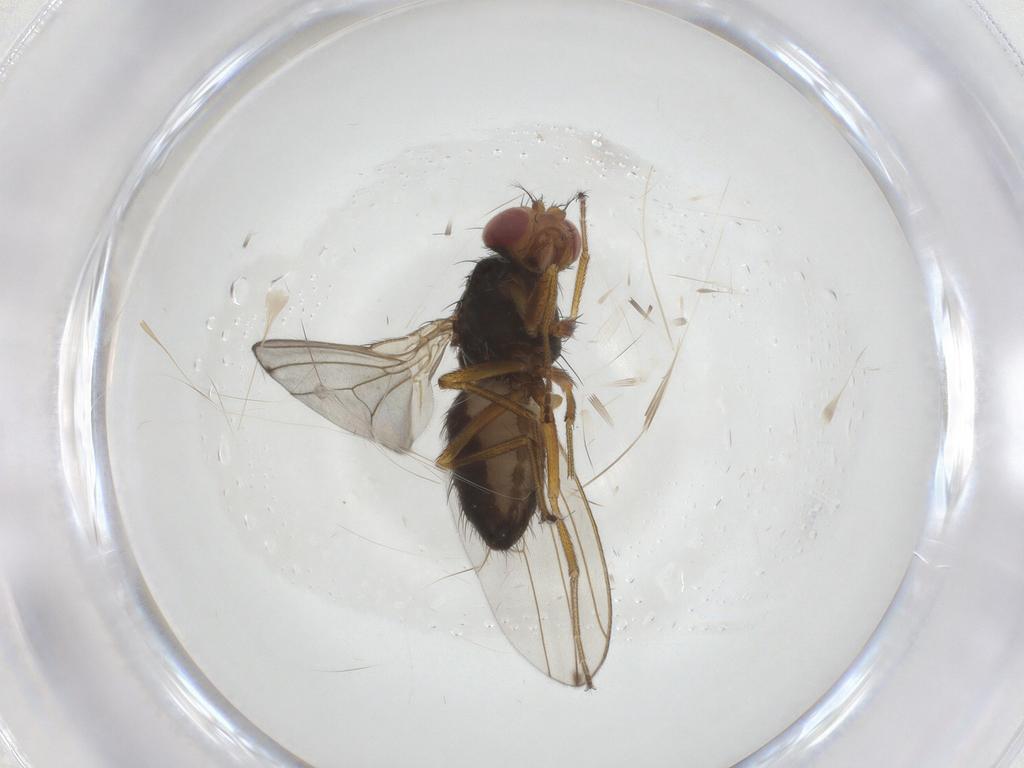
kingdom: Animalia
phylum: Arthropoda
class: Insecta
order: Diptera
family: Drosophilidae
